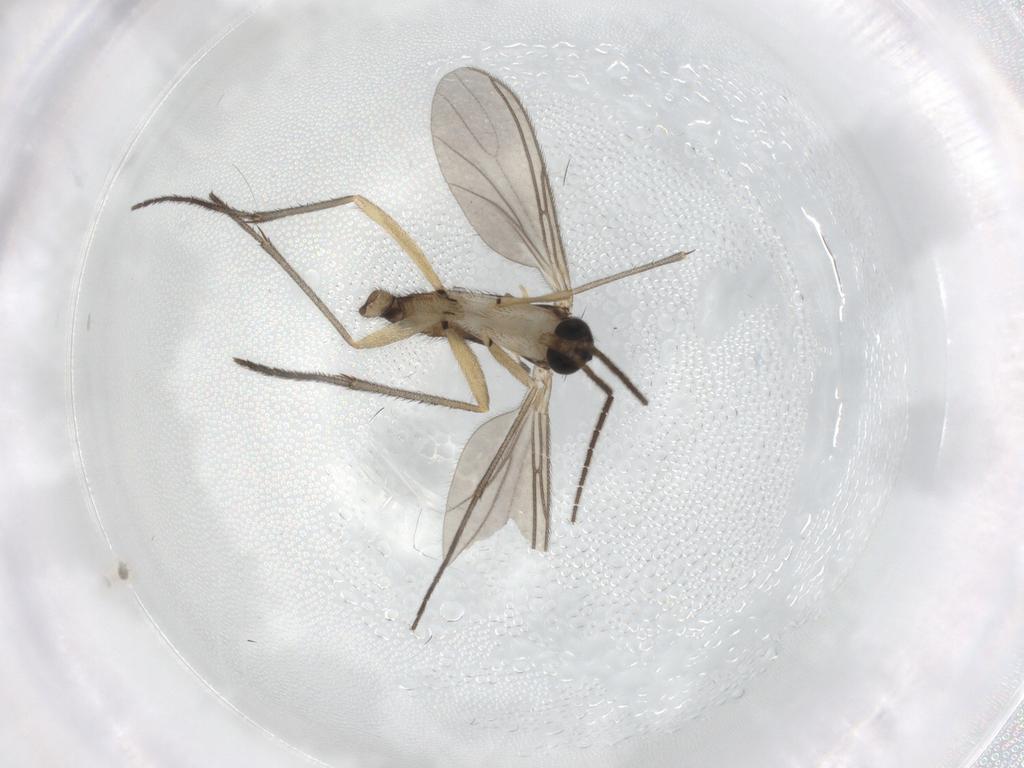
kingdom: Animalia
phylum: Arthropoda
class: Insecta
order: Diptera
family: Sciaridae
